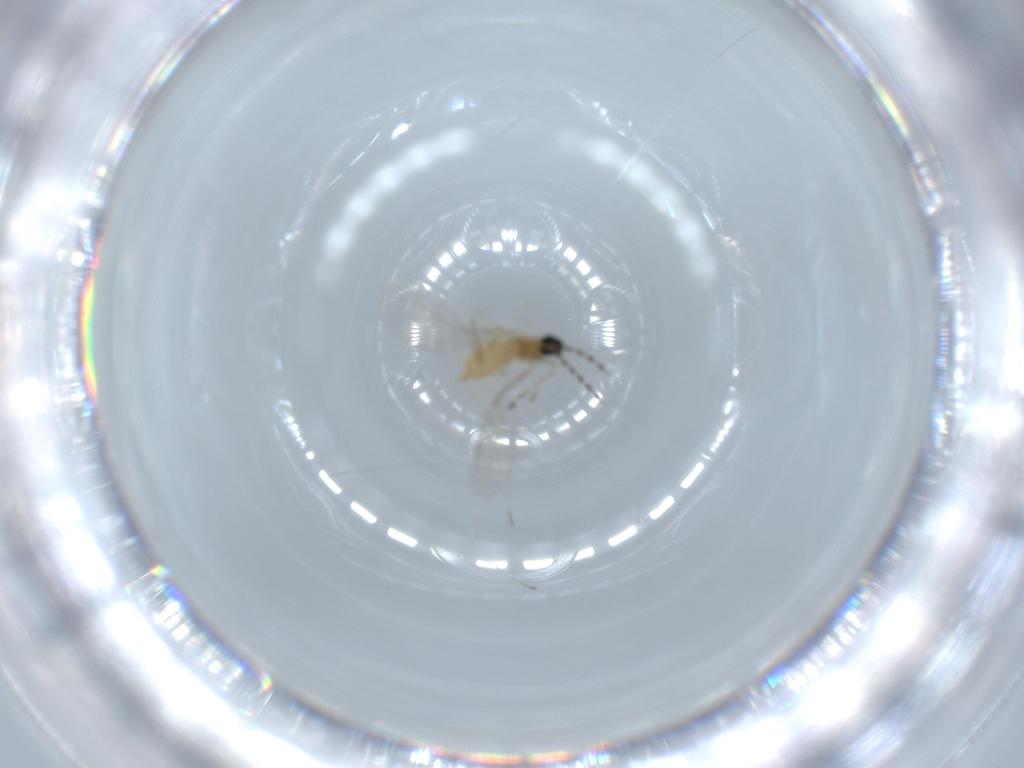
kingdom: Animalia
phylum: Arthropoda
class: Insecta
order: Diptera
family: Cecidomyiidae
